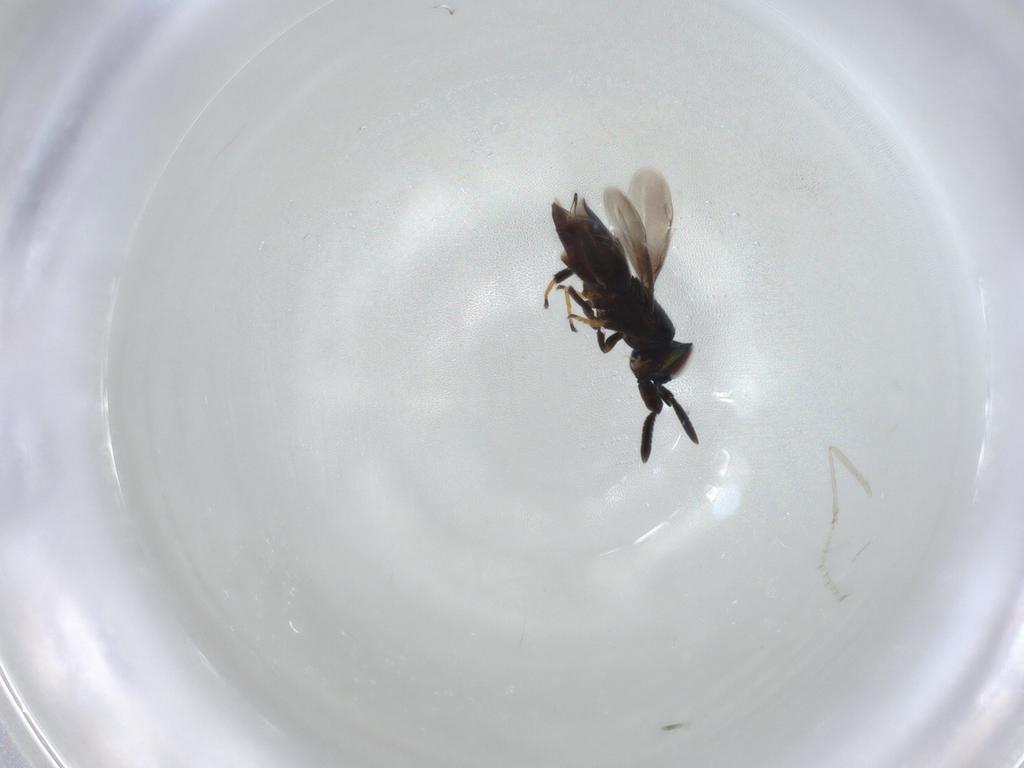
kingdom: Animalia
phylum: Arthropoda
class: Insecta
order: Hymenoptera
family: Encyrtidae
